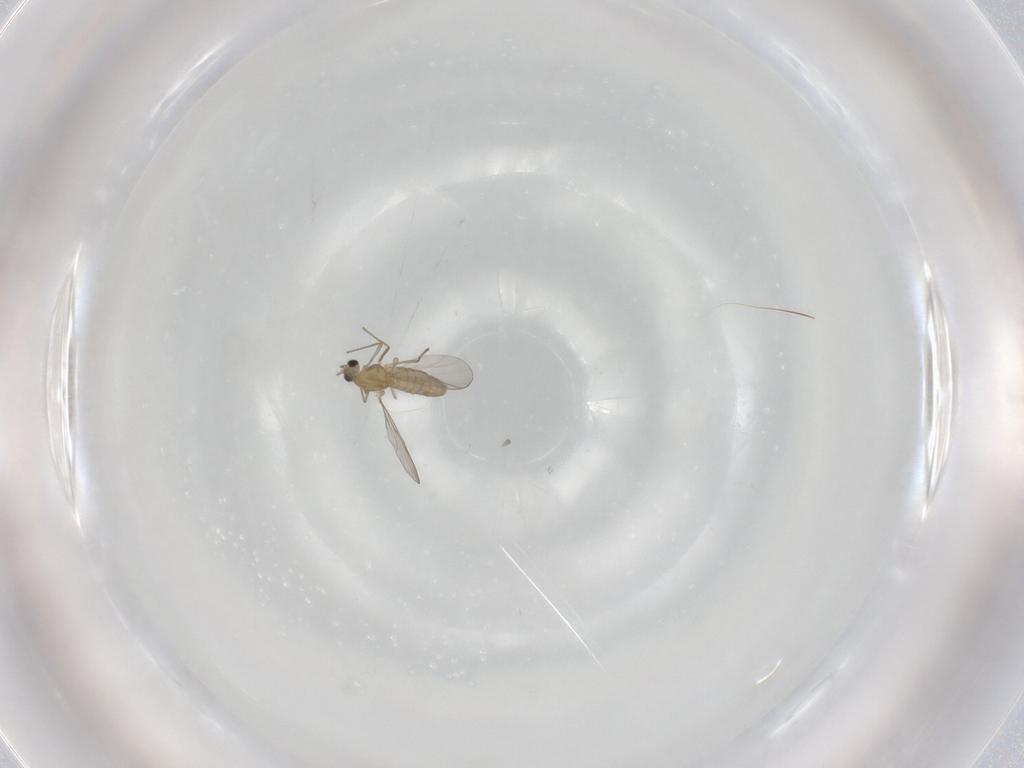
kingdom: Animalia
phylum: Arthropoda
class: Insecta
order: Diptera
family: Chironomidae
